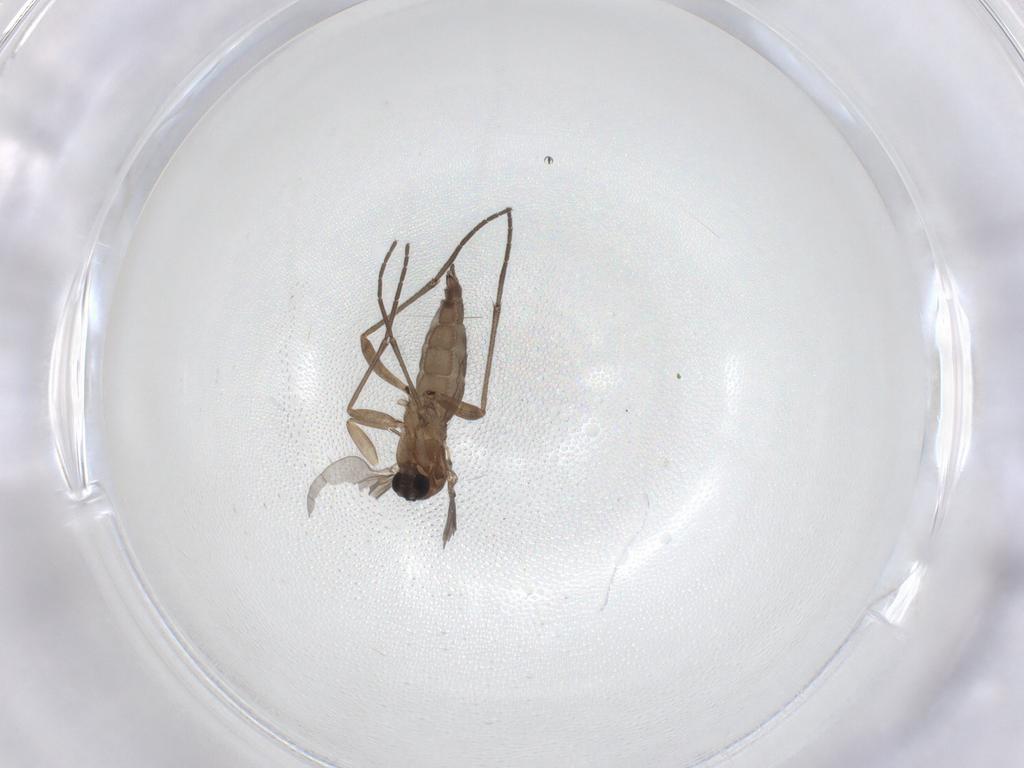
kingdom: Animalia
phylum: Arthropoda
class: Insecta
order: Diptera
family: Sciaridae
